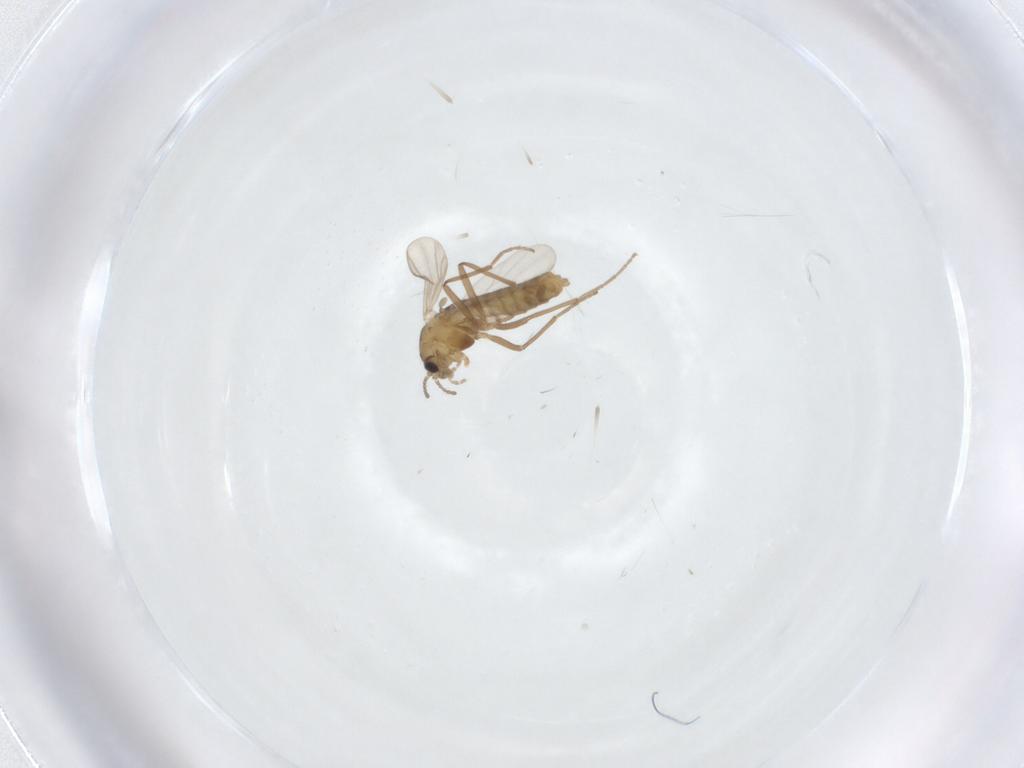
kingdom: Animalia
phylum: Arthropoda
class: Insecta
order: Diptera
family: Chironomidae
